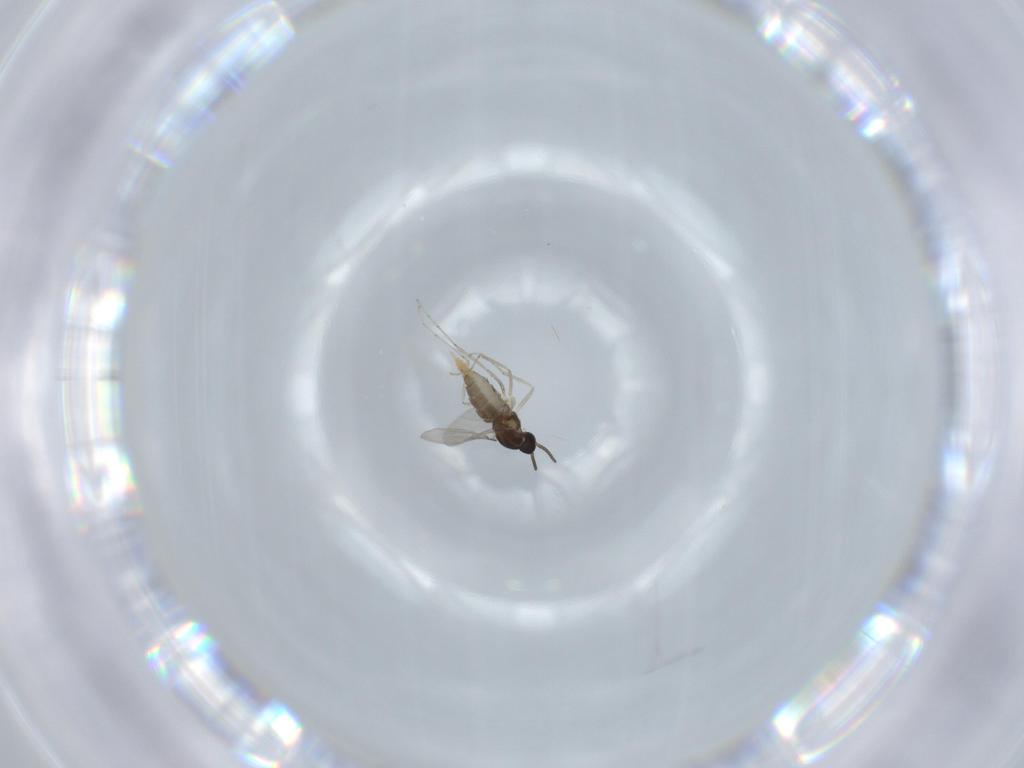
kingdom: Animalia
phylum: Arthropoda
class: Insecta
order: Diptera
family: Cecidomyiidae
